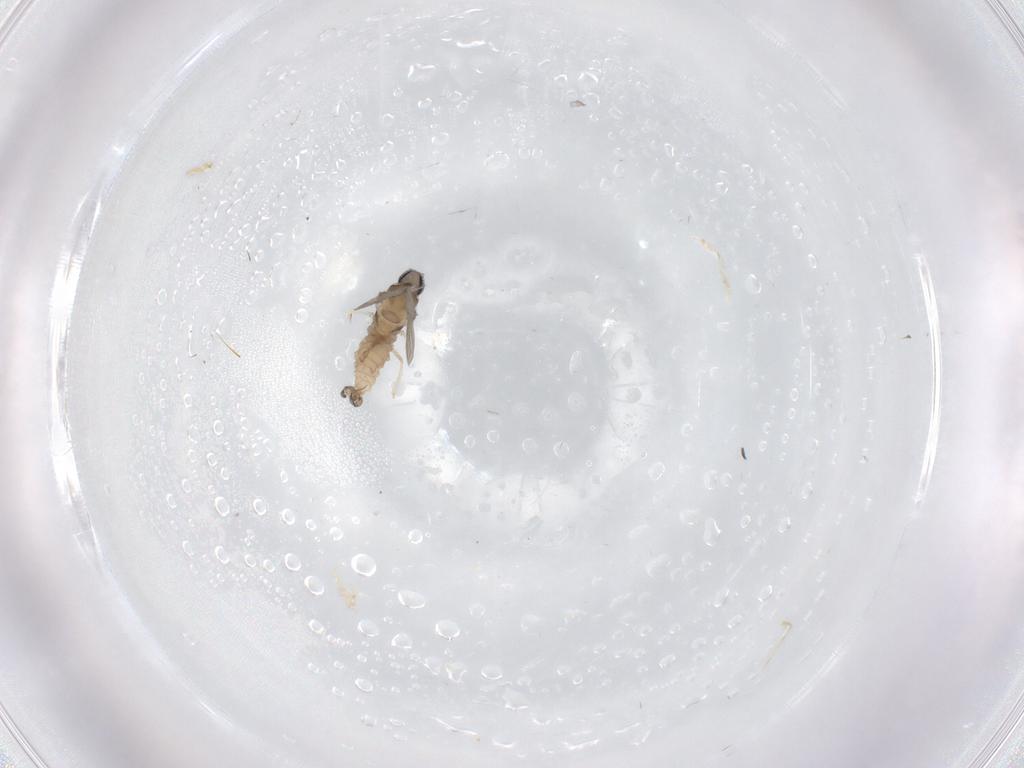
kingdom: Animalia
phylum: Arthropoda
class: Insecta
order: Diptera
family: Cecidomyiidae
